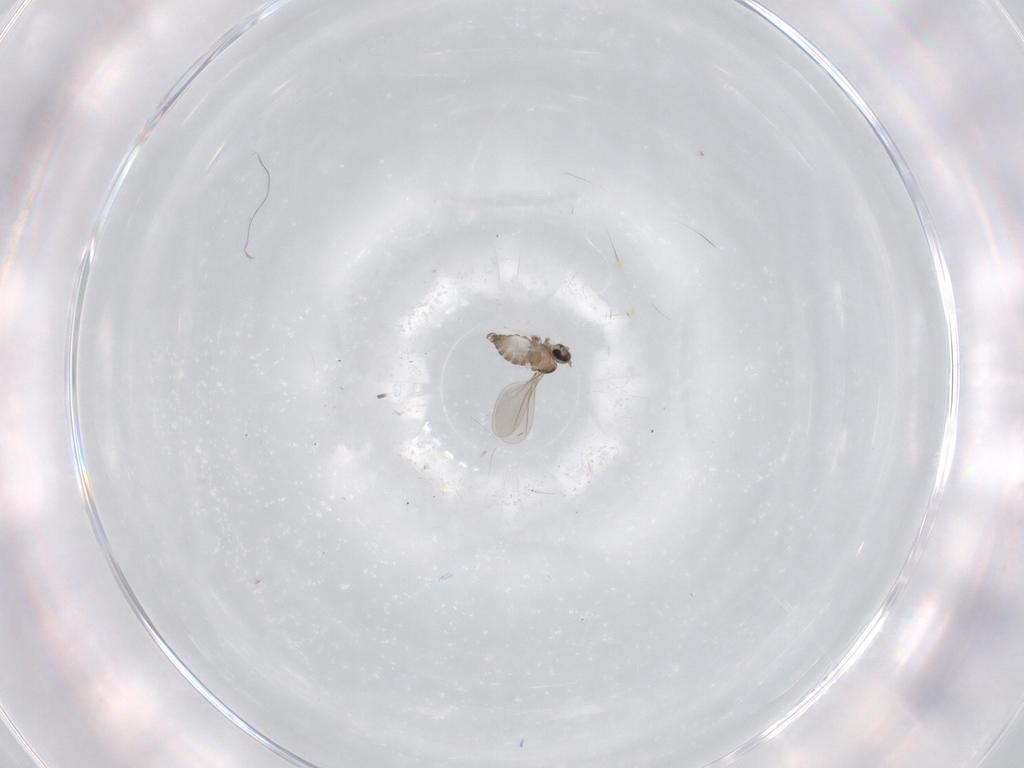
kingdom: Animalia
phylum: Arthropoda
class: Insecta
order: Diptera
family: Cecidomyiidae
